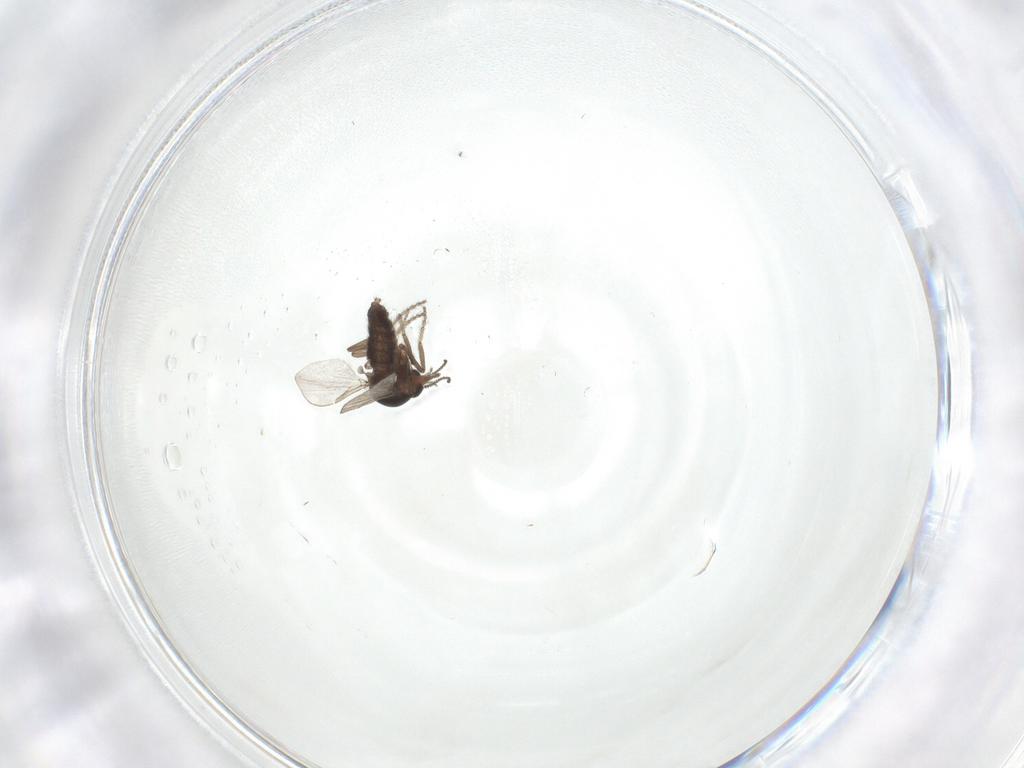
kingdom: Animalia
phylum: Arthropoda
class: Insecta
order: Diptera
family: Ceratopogonidae
